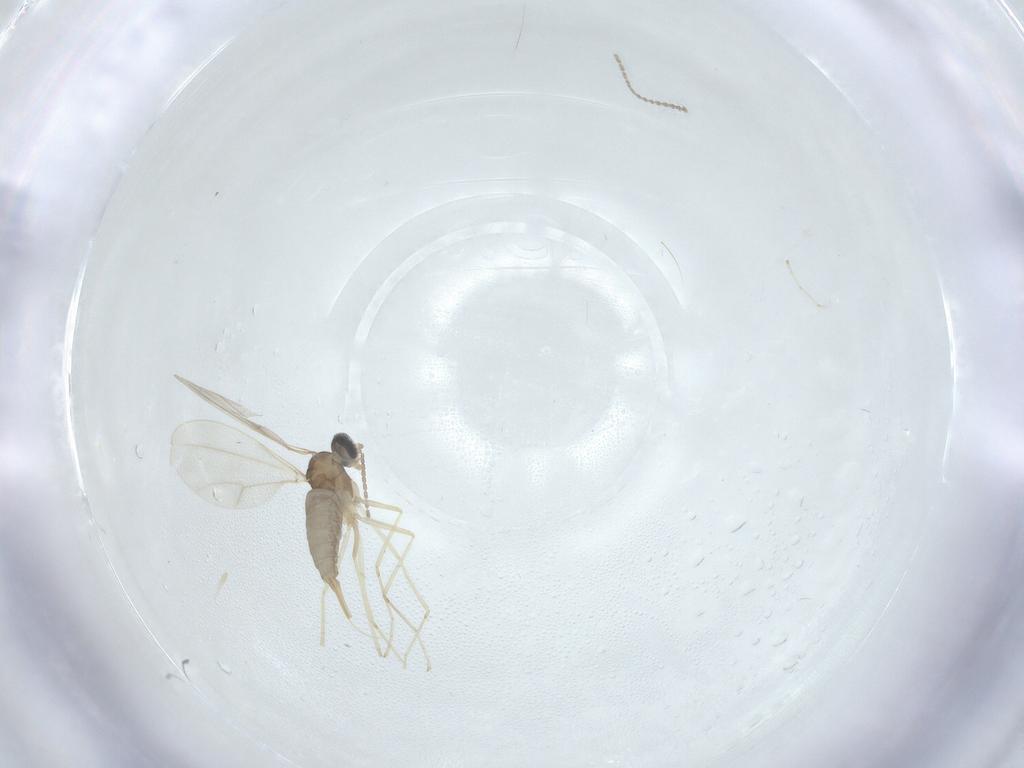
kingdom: Animalia
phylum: Arthropoda
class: Insecta
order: Diptera
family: Cecidomyiidae
